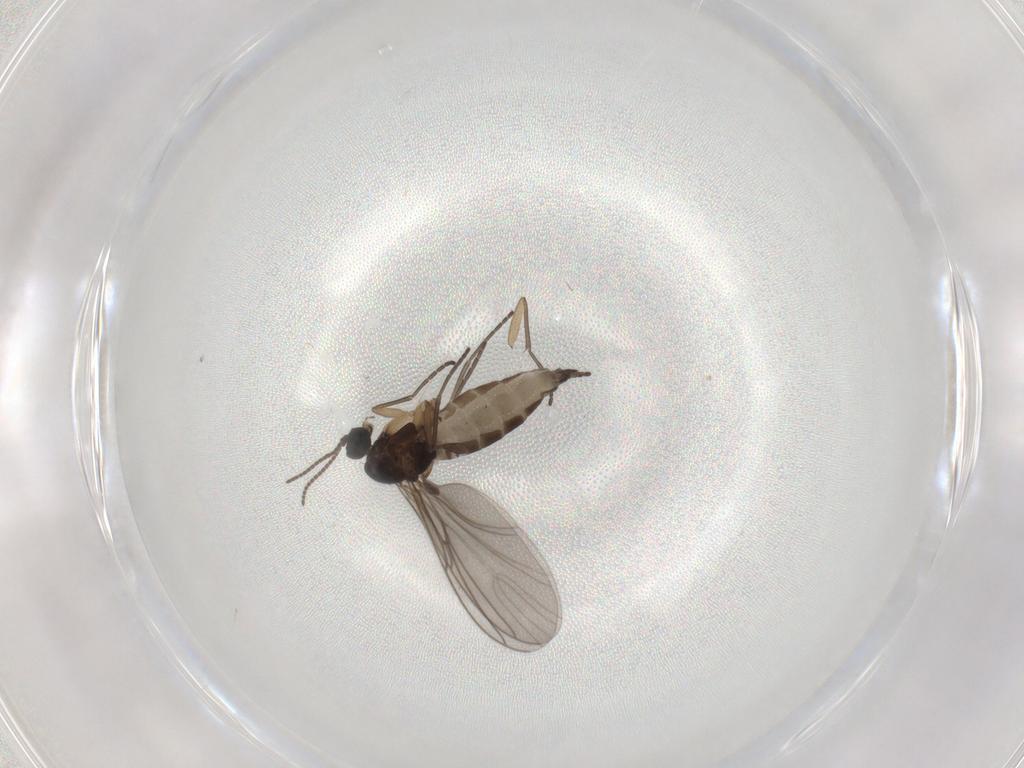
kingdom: Animalia
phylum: Arthropoda
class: Insecta
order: Diptera
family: Sciaridae
